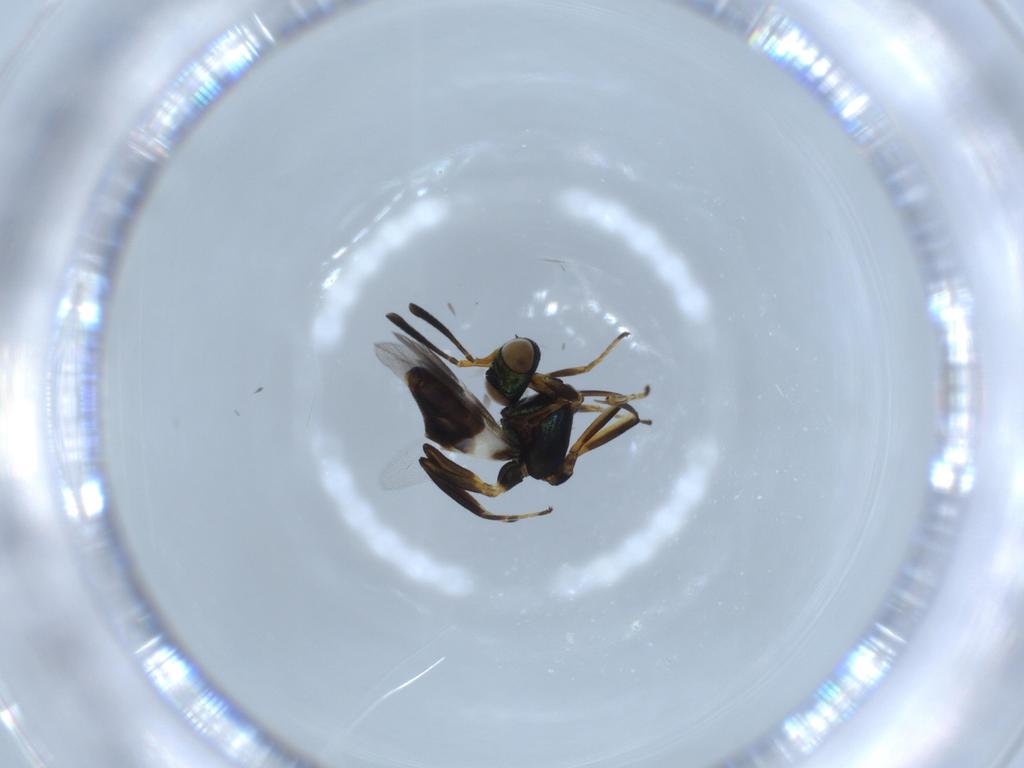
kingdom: Animalia
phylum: Arthropoda
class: Insecta
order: Hymenoptera
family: Eupelmidae
